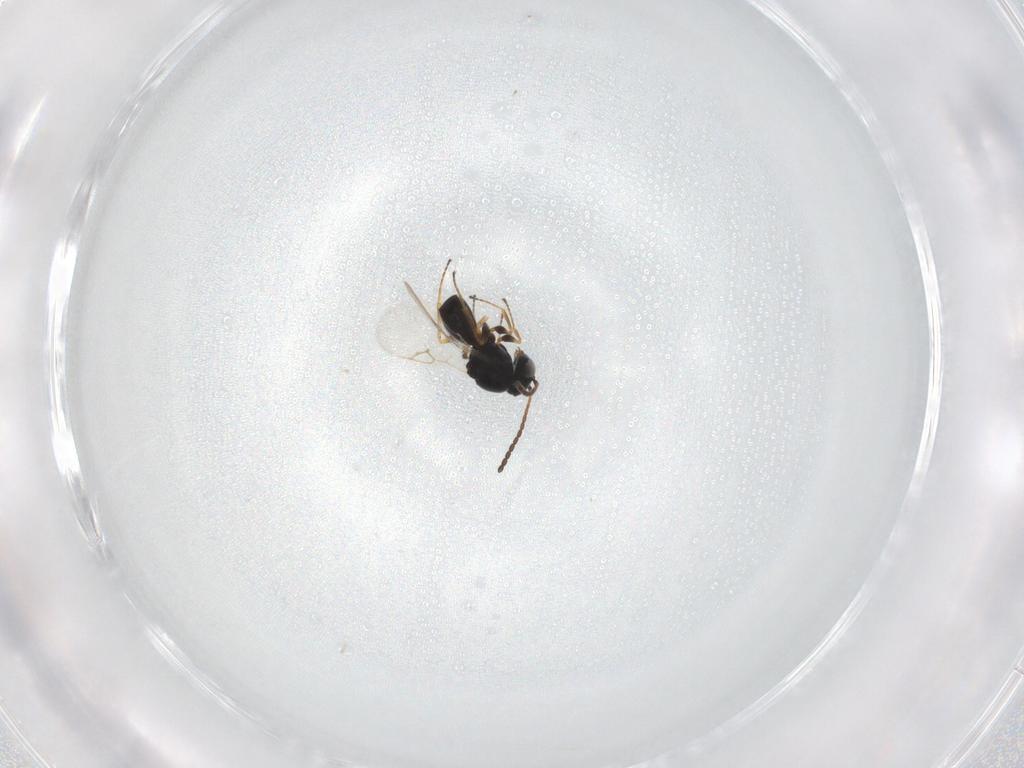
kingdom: Animalia
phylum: Arthropoda
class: Insecta
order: Hymenoptera
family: Figitidae
